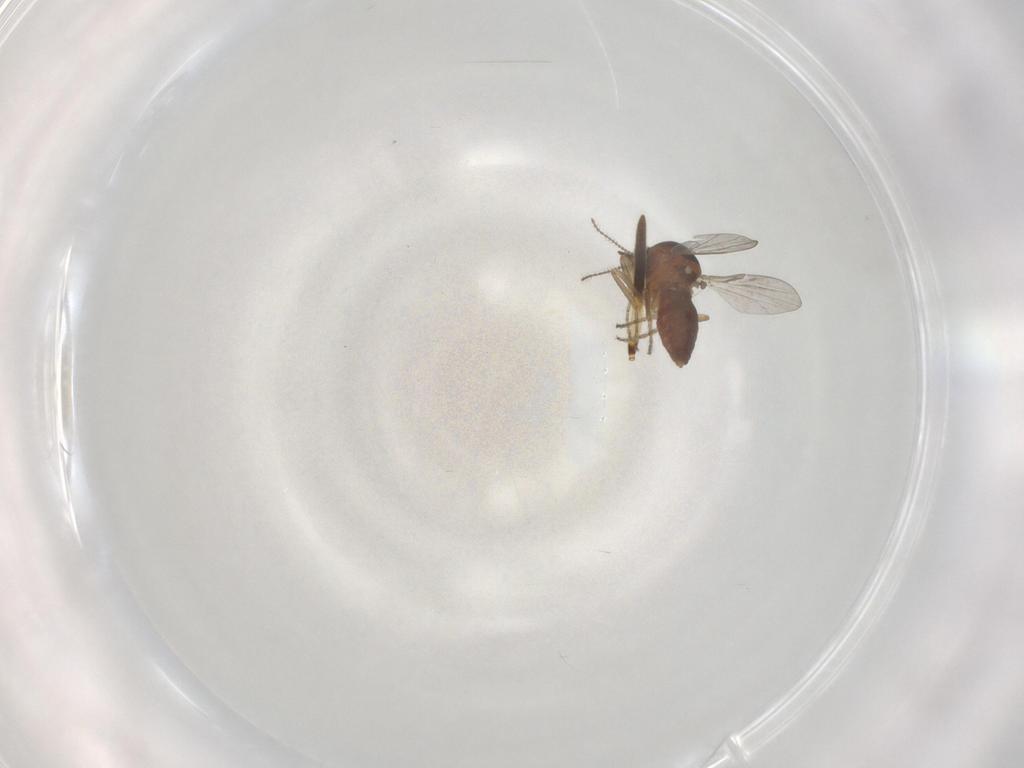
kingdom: Animalia
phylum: Arthropoda
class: Insecta
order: Diptera
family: Ceratopogonidae
